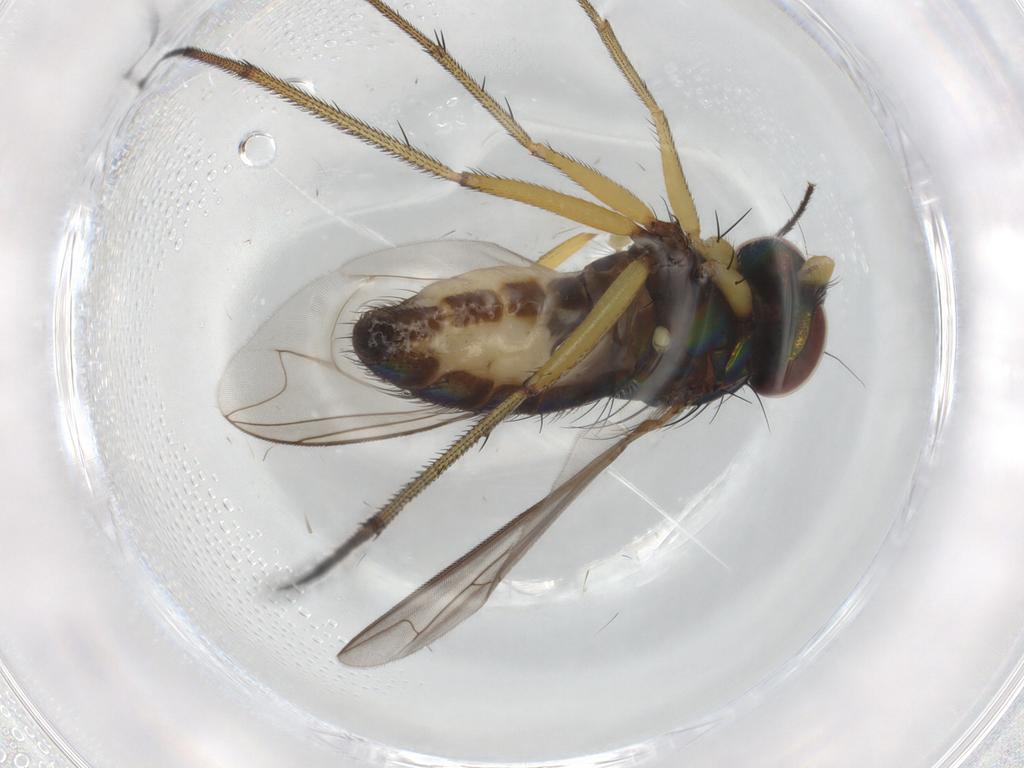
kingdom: Animalia
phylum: Arthropoda
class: Insecta
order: Diptera
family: Dolichopodidae
